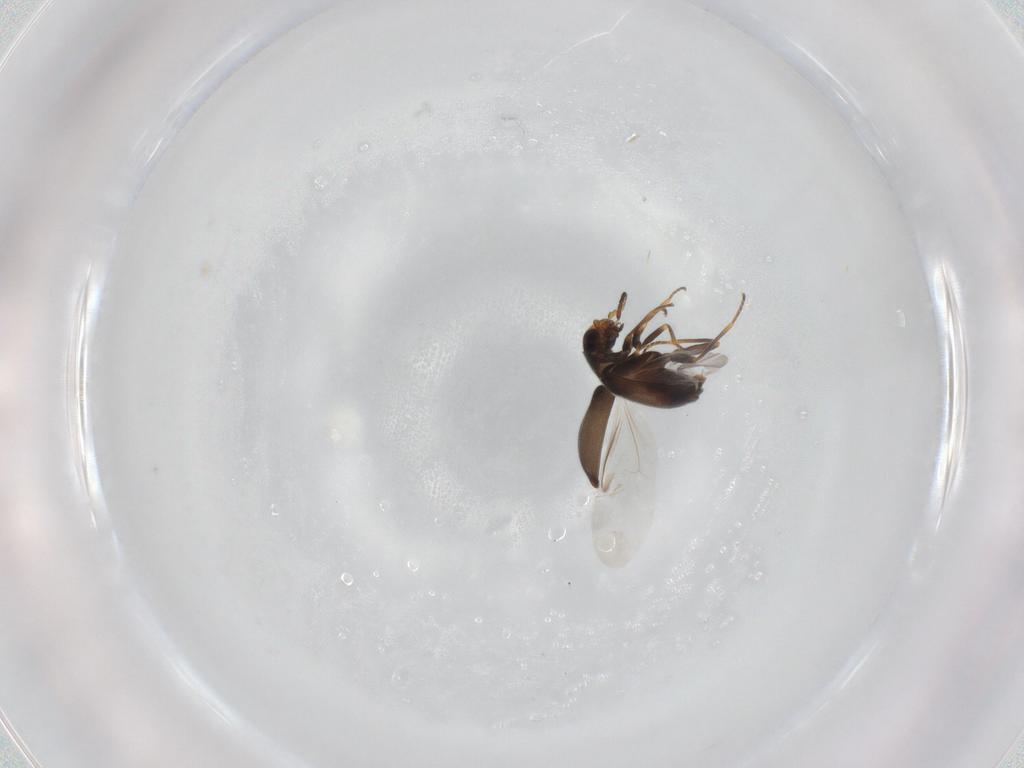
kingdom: Animalia
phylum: Arthropoda
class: Insecta
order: Coleoptera
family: Melyridae
